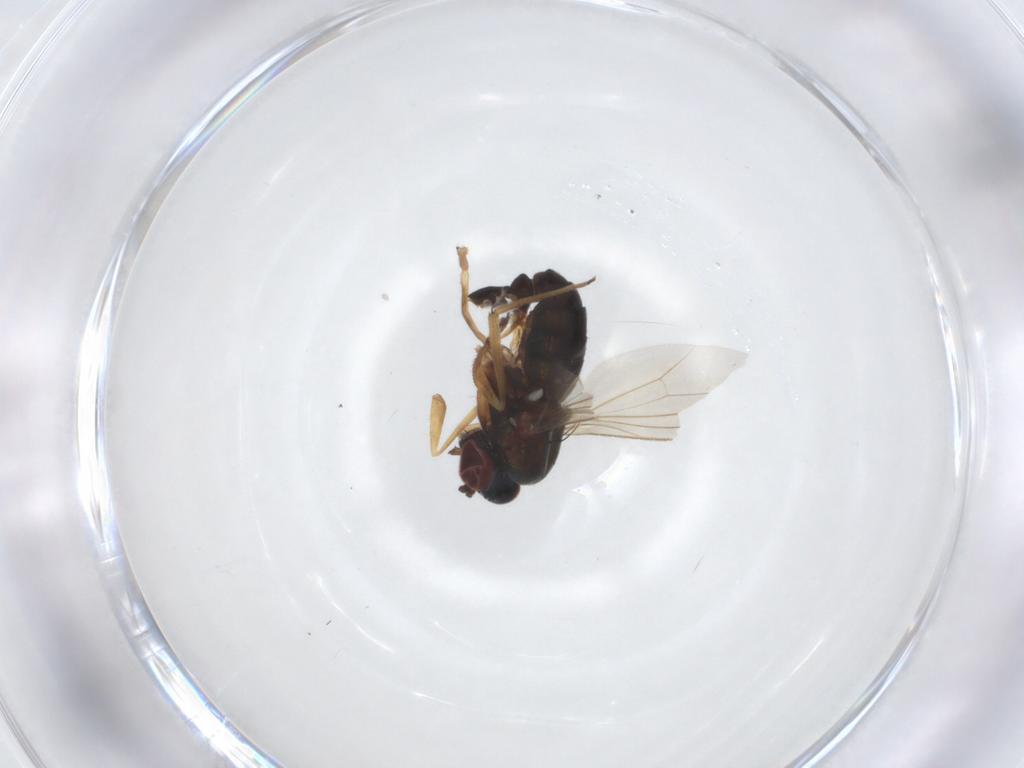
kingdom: Animalia
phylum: Arthropoda
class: Insecta
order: Diptera
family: Dolichopodidae
